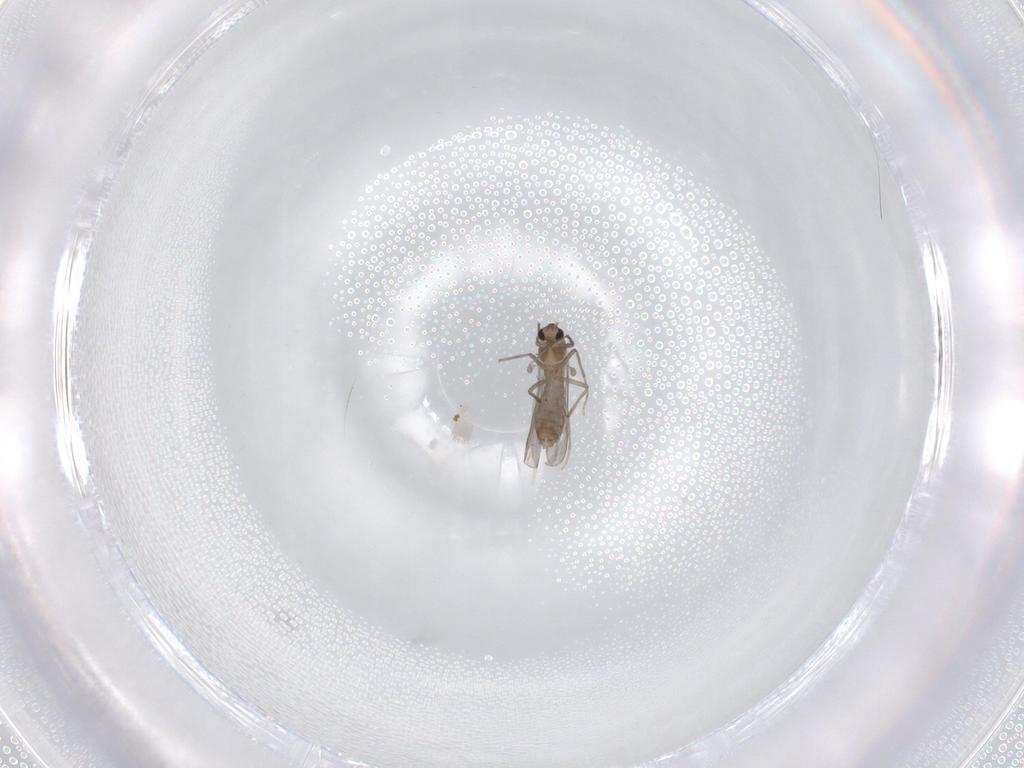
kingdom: Animalia
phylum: Arthropoda
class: Insecta
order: Diptera
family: Chironomidae
